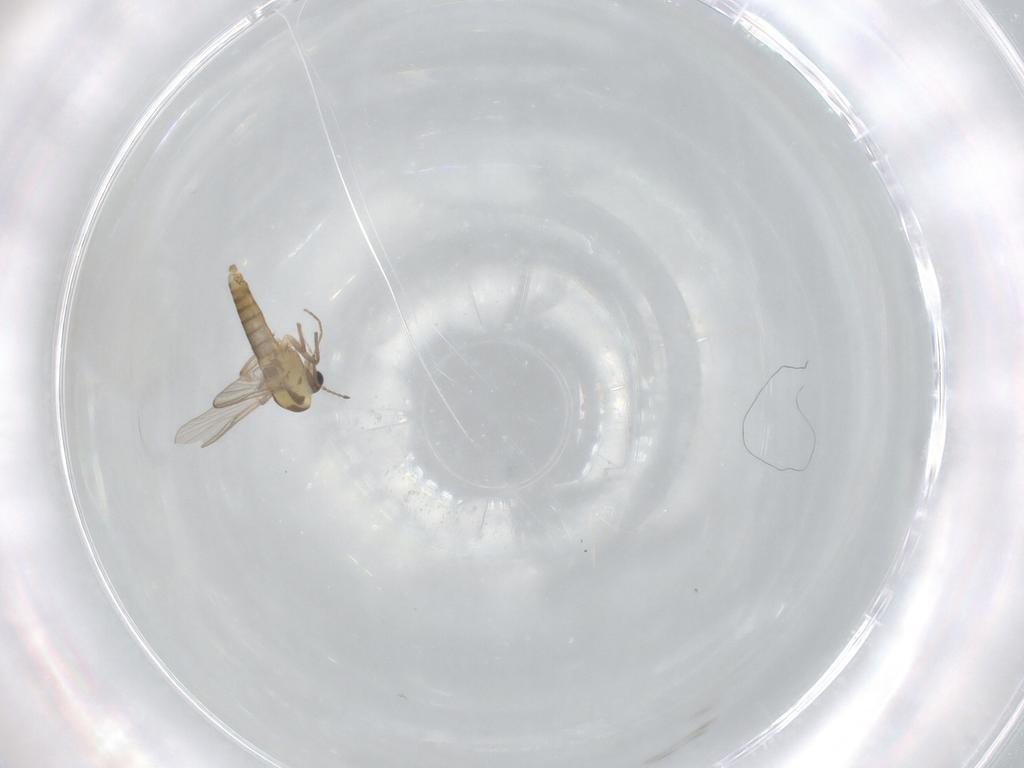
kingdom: Animalia
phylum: Arthropoda
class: Insecta
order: Diptera
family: Chironomidae
